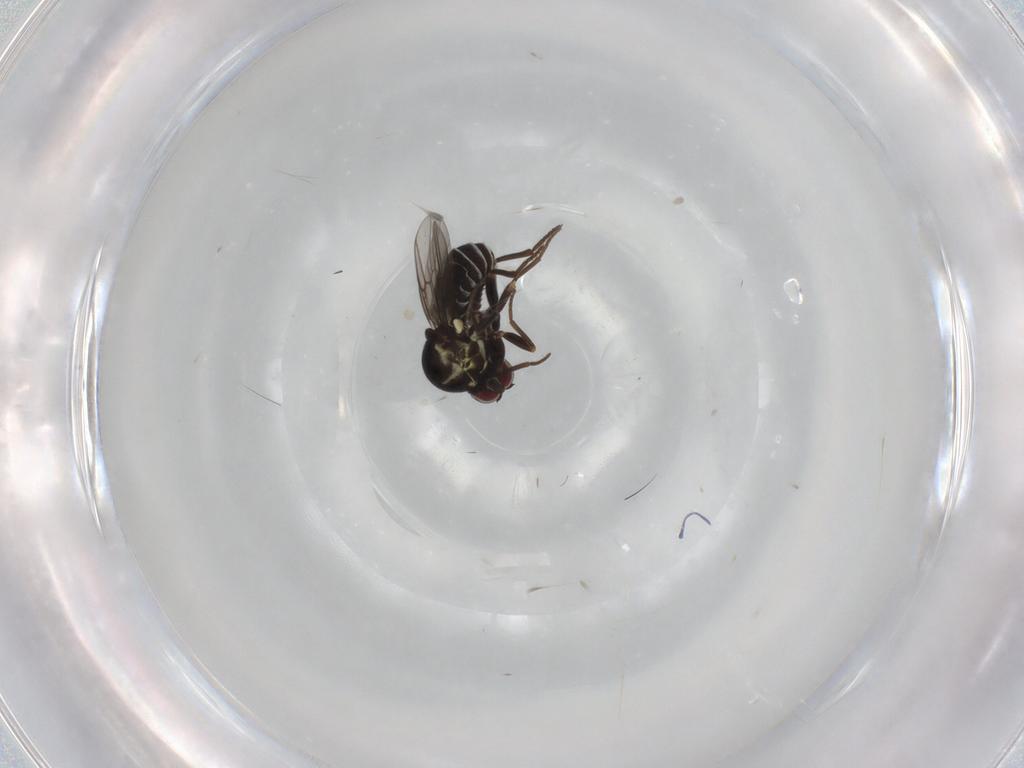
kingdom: Animalia
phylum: Arthropoda
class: Insecta
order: Diptera
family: Mythicomyiidae
